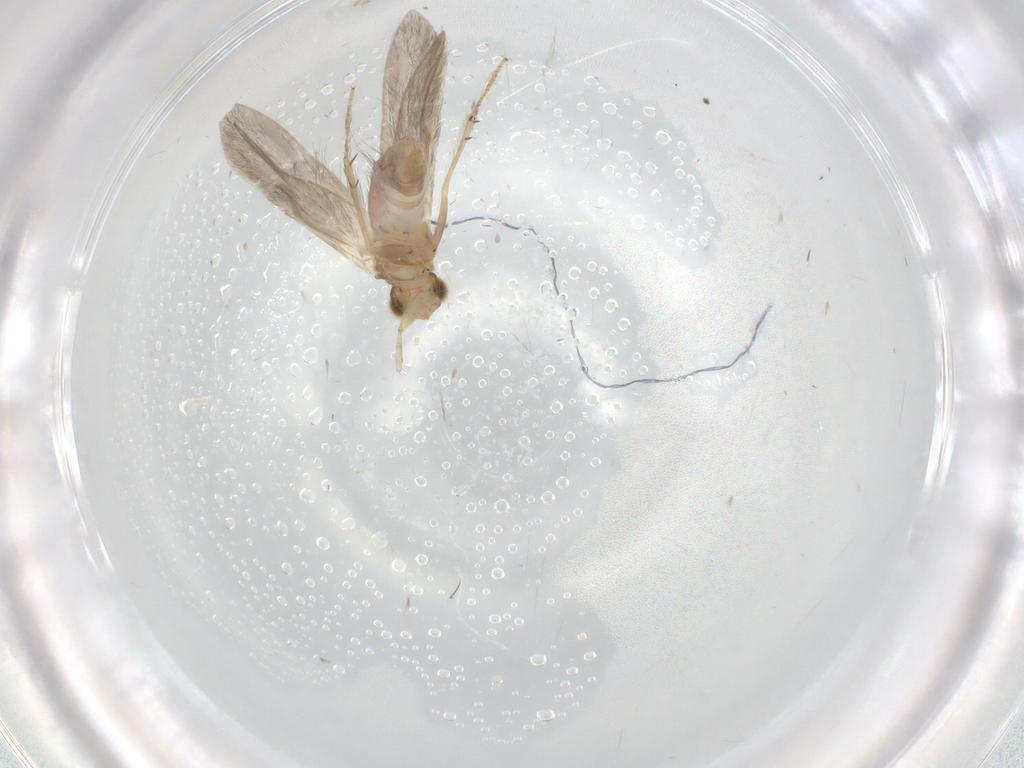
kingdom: Animalia
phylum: Arthropoda
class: Insecta
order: Trichoptera
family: Glossosomatidae
